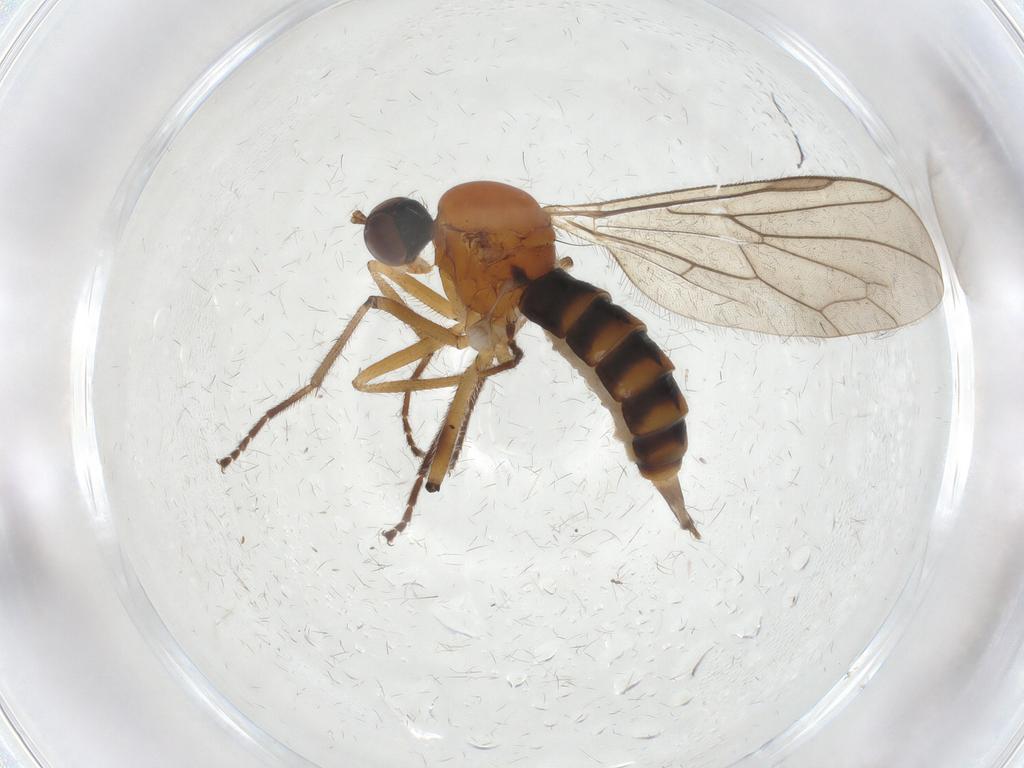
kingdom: Animalia
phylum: Arthropoda
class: Insecta
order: Diptera
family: Hybotidae
